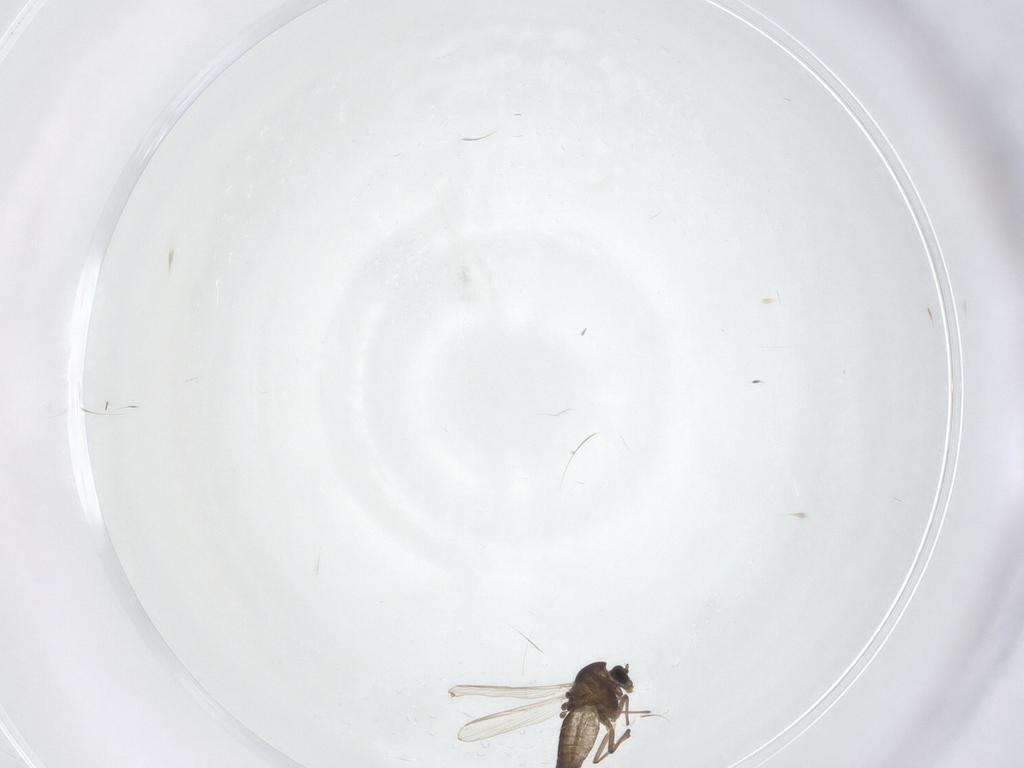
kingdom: Animalia
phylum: Arthropoda
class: Insecta
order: Diptera
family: Chironomidae
